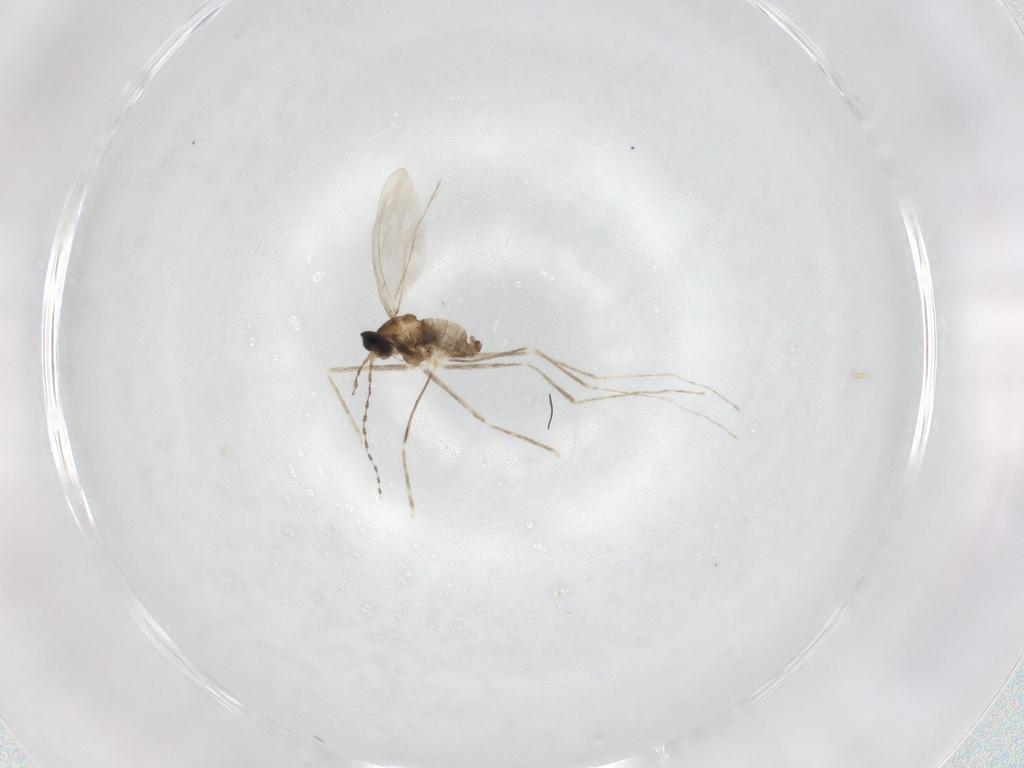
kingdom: Animalia
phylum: Arthropoda
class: Insecta
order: Diptera
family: Cecidomyiidae
